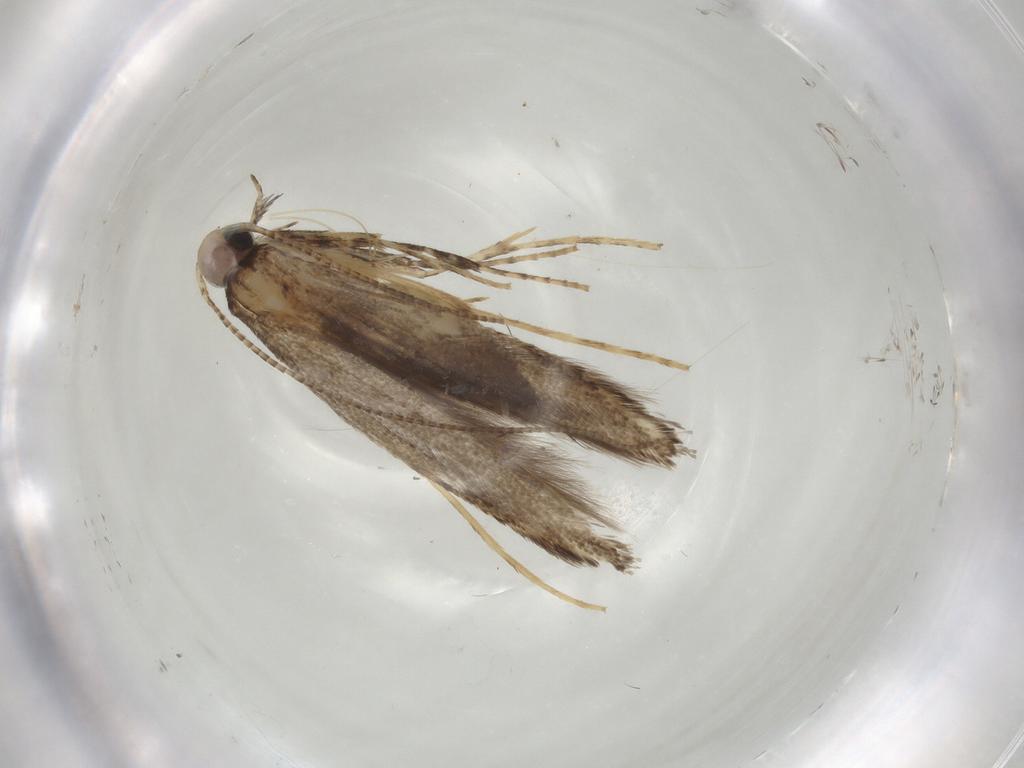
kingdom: Animalia
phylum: Arthropoda
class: Insecta
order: Lepidoptera
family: Gracillariidae
